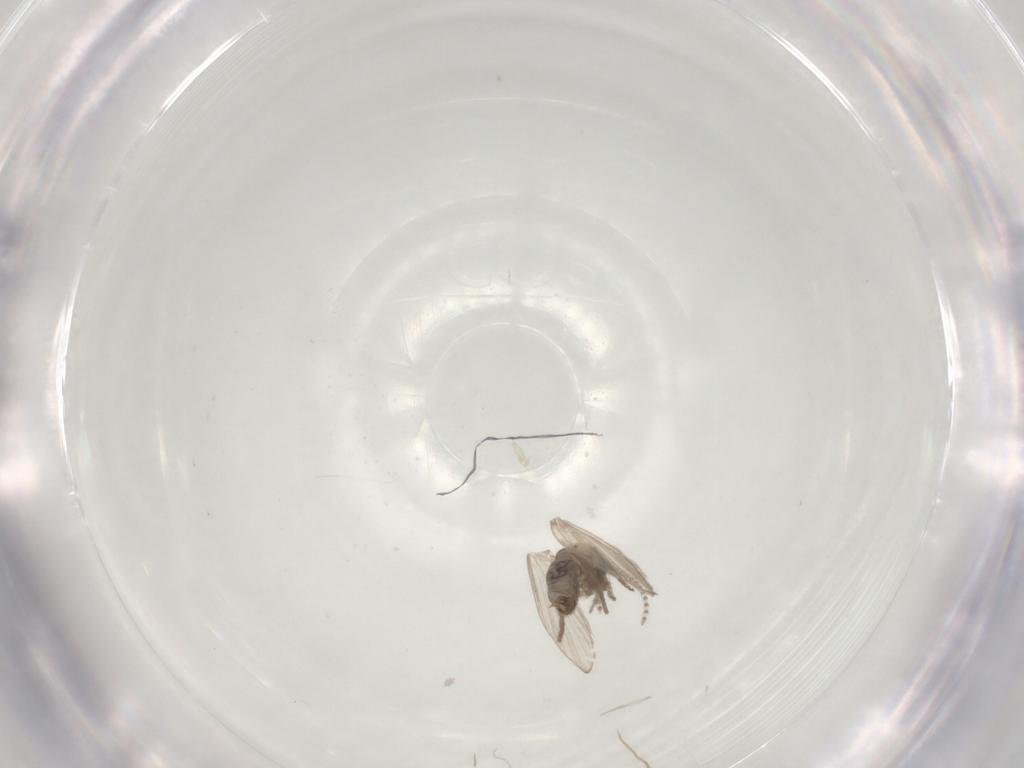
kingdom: Animalia
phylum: Arthropoda
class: Insecta
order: Diptera
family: Psychodidae
